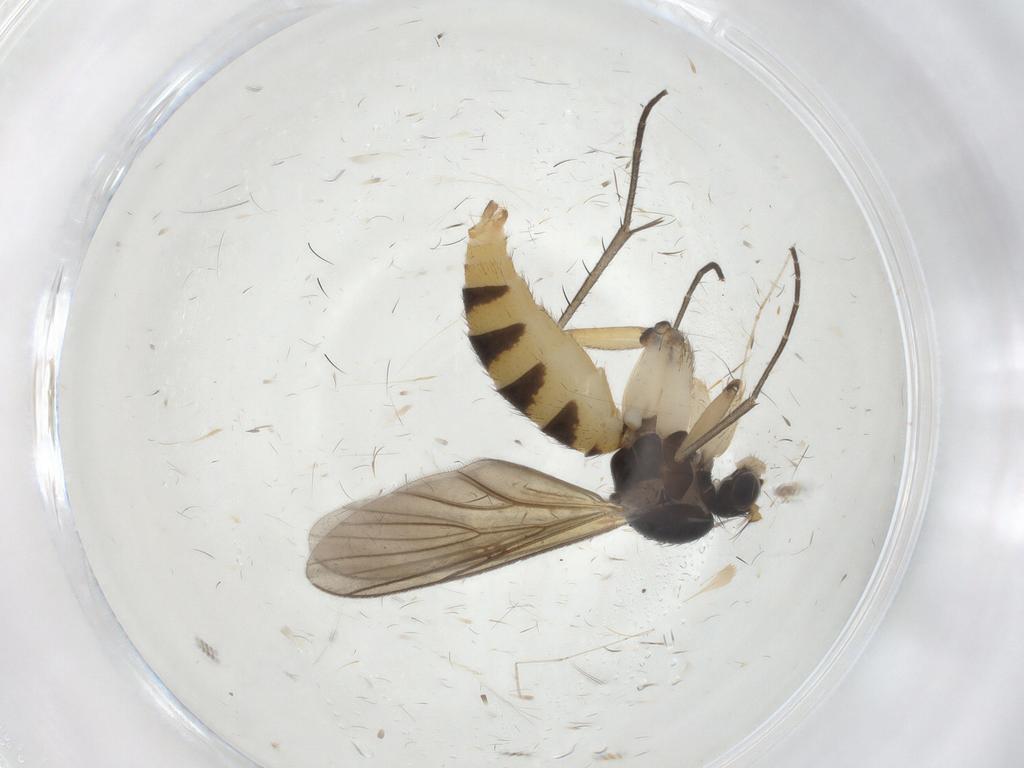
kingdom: Animalia
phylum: Arthropoda
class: Insecta
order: Diptera
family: Sciaridae
